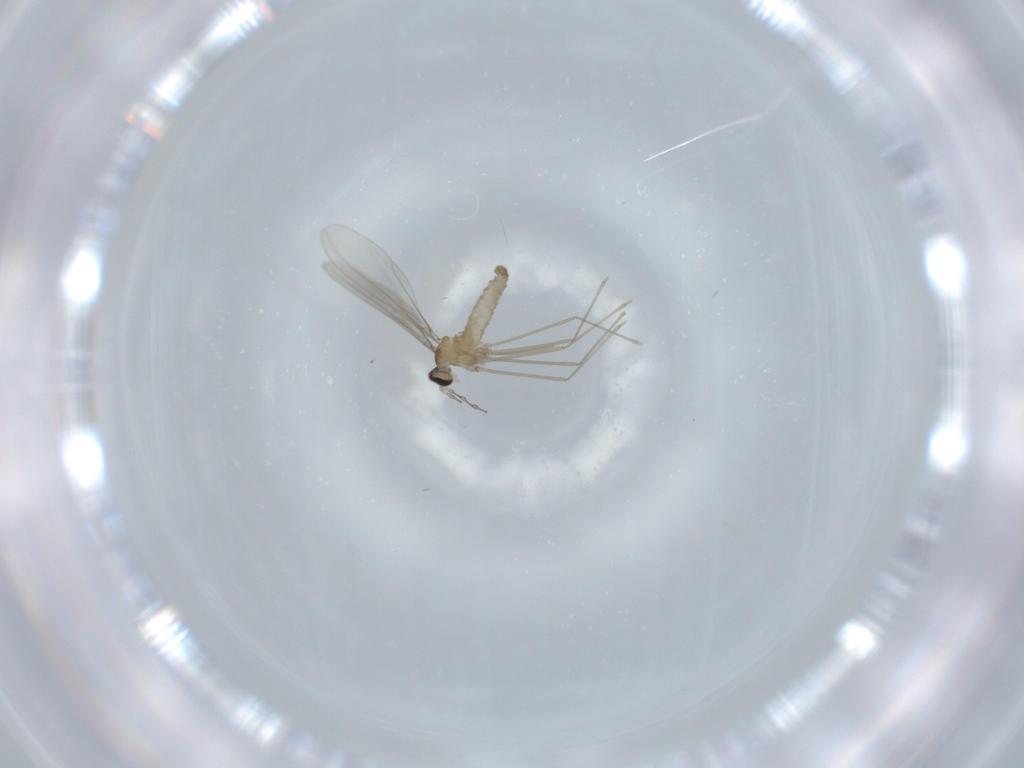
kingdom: Animalia
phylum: Arthropoda
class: Insecta
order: Diptera
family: Cecidomyiidae
